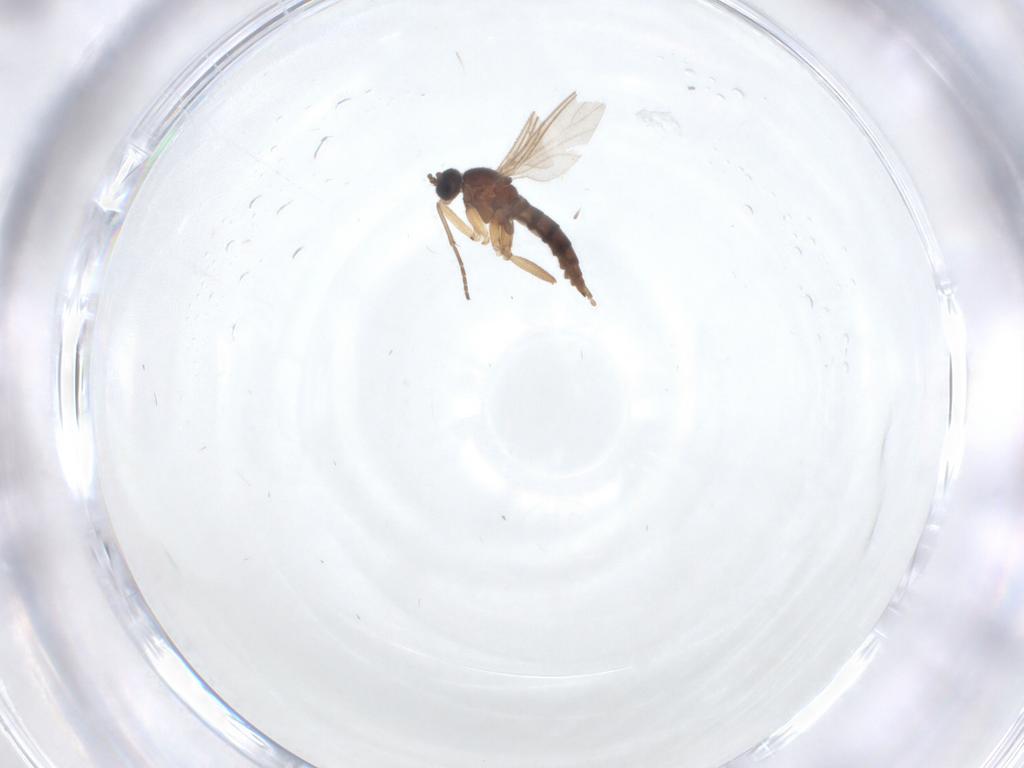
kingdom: Animalia
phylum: Arthropoda
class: Insecta
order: Diptera
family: Sciaridae
